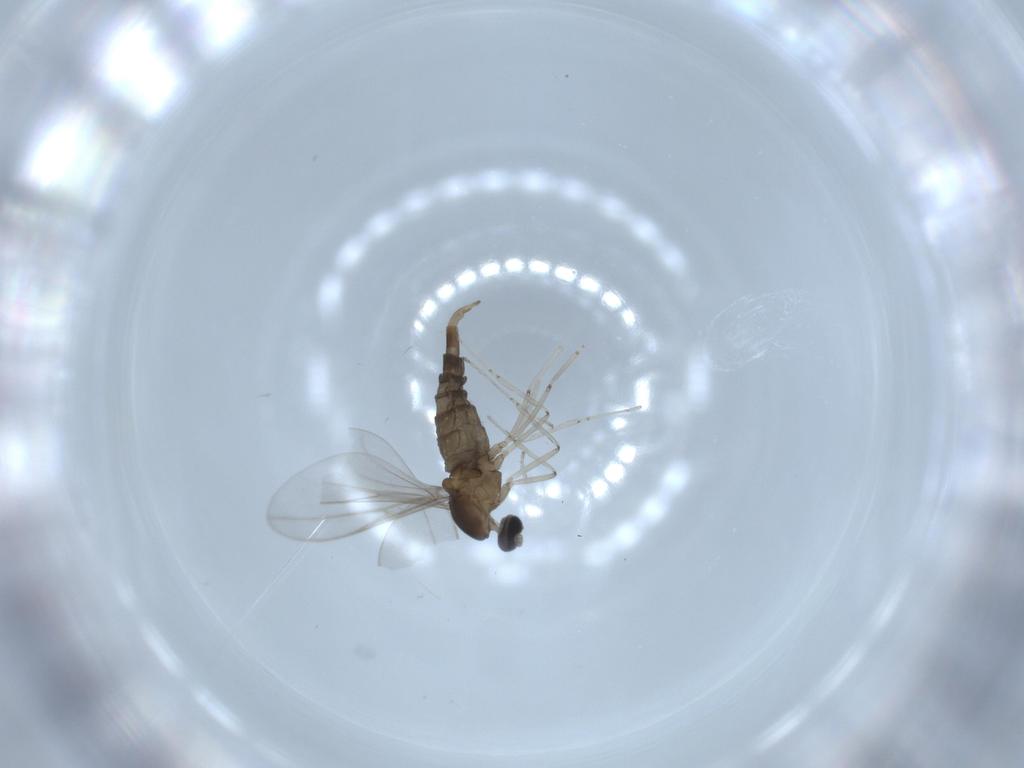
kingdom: Animalia
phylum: Arthropoda
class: Insecta
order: Diptera
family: Cecidomyiidae
